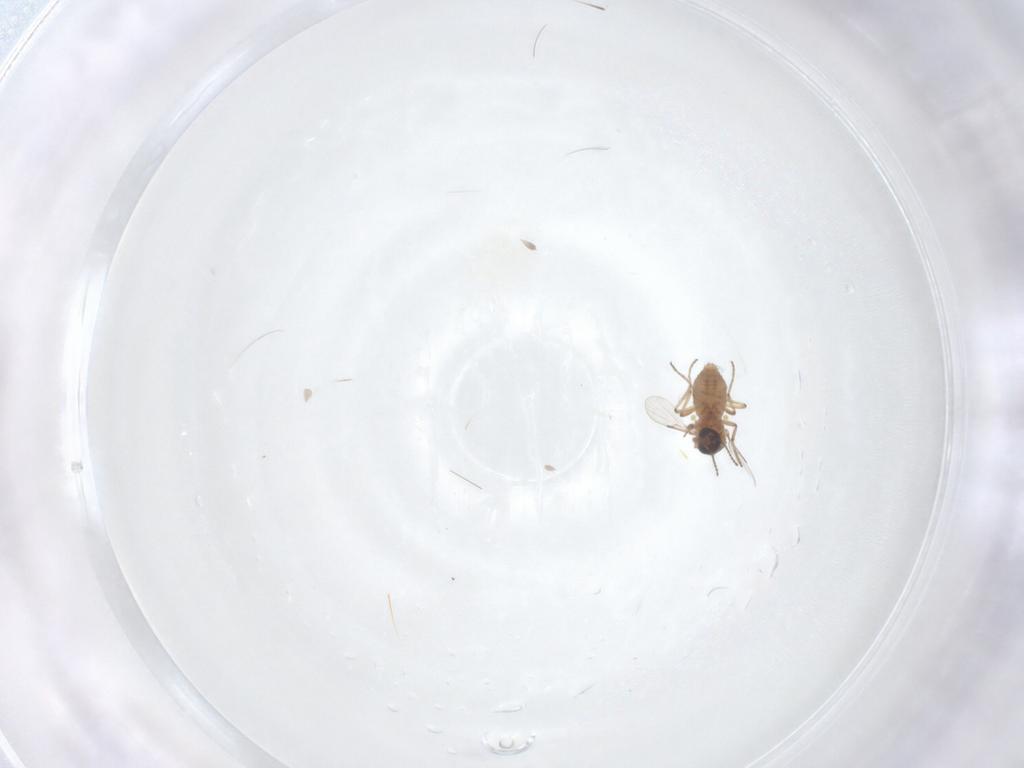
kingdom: Animalia
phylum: Arthropoda
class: Insecta
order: Diptera
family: Ceratopogonidae
